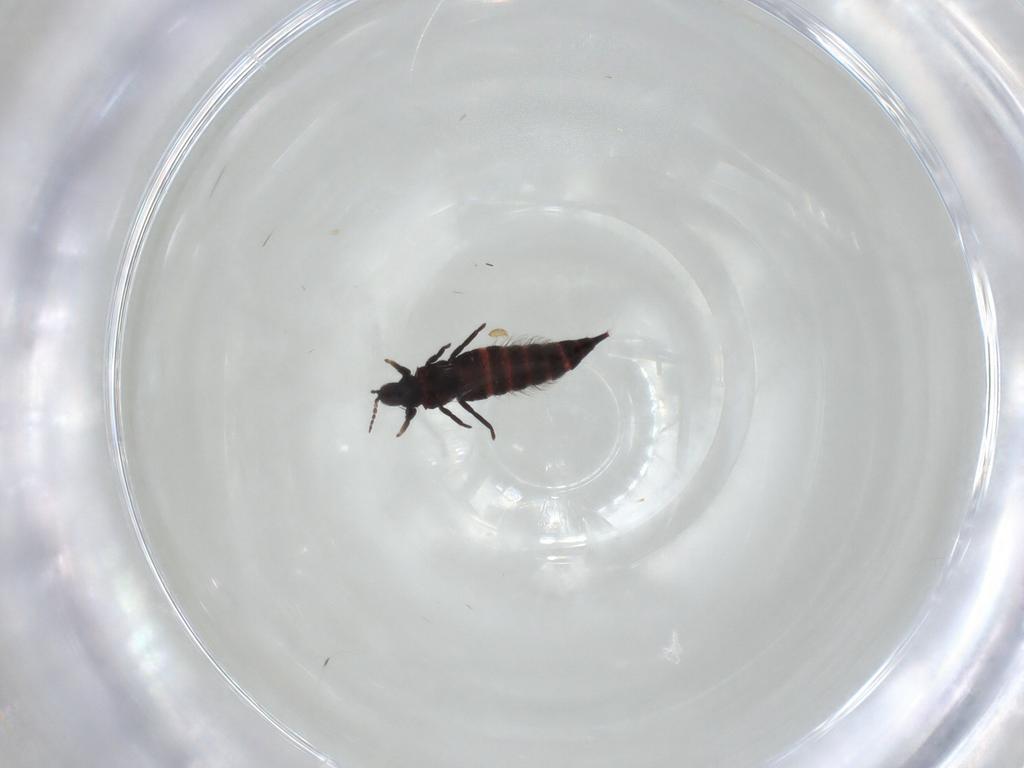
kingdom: Animalia
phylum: Arthropoda
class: Insecta
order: Thysanoptera
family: Phlaeothripidae
